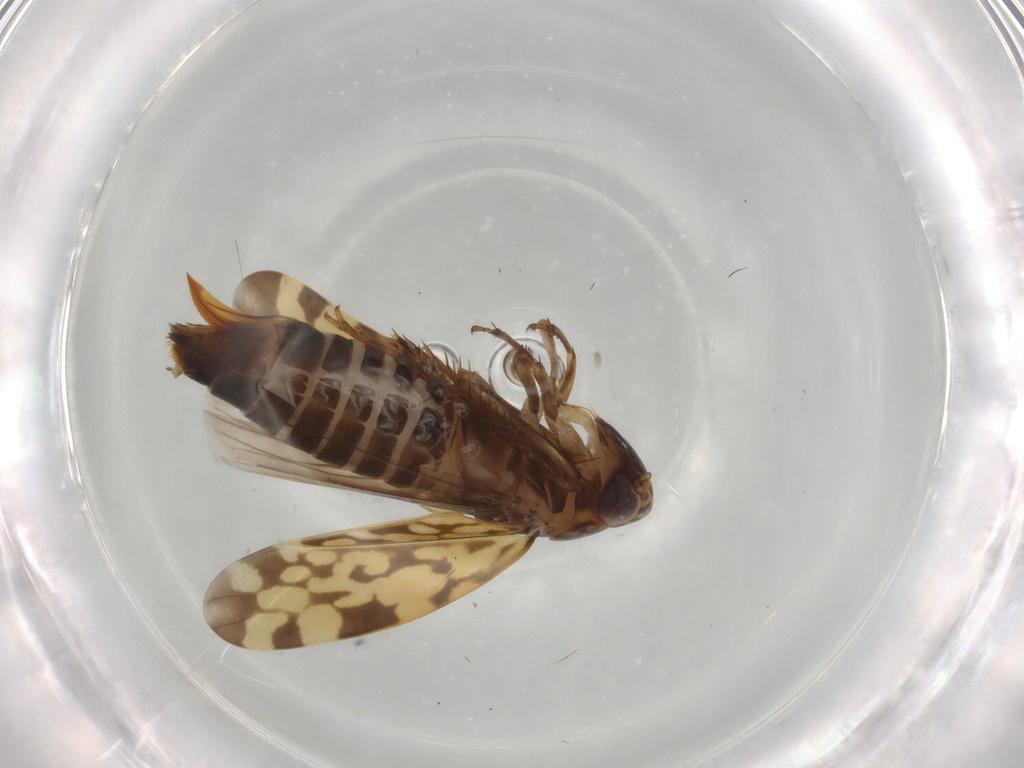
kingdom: Animalia
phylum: Arthropoda
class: Insecta
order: Hemiptera
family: Cicadellidae
